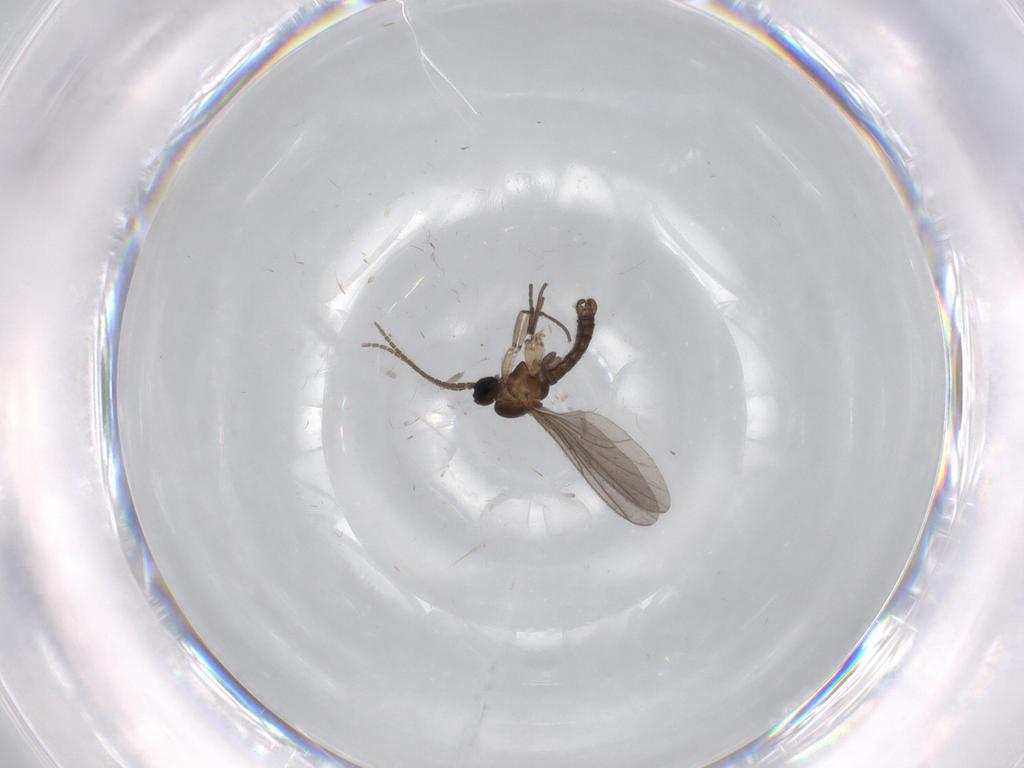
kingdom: Animalia
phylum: Arthropoda
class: Insecta
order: Diptera
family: Sciaridae
